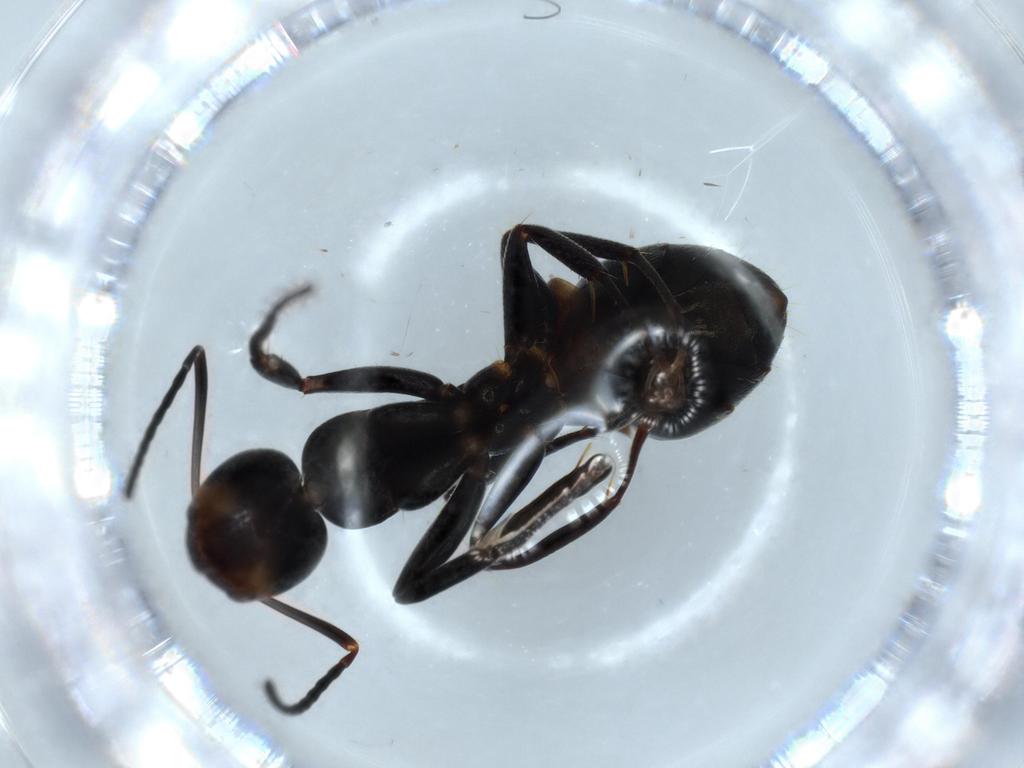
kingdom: Animalia
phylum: Arthropoda
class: Insecta
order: Hymenoptera
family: Formicidae
